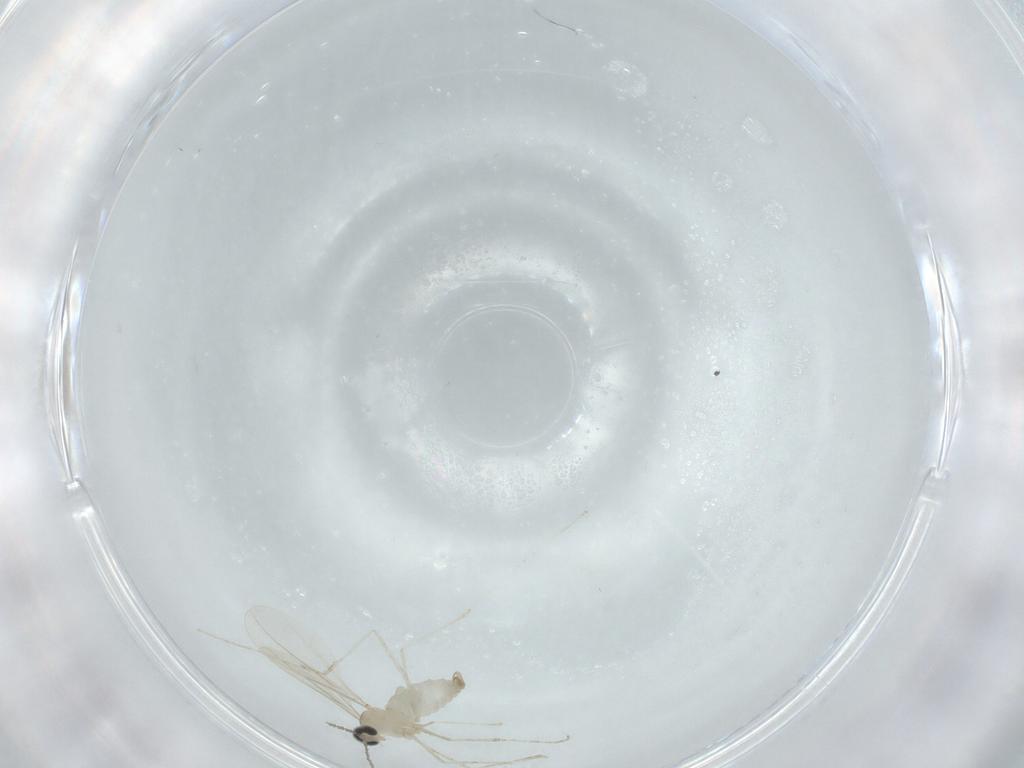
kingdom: Animalia
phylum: Arthropoda
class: Insecta
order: Diptera
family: Cecidomyiidae
